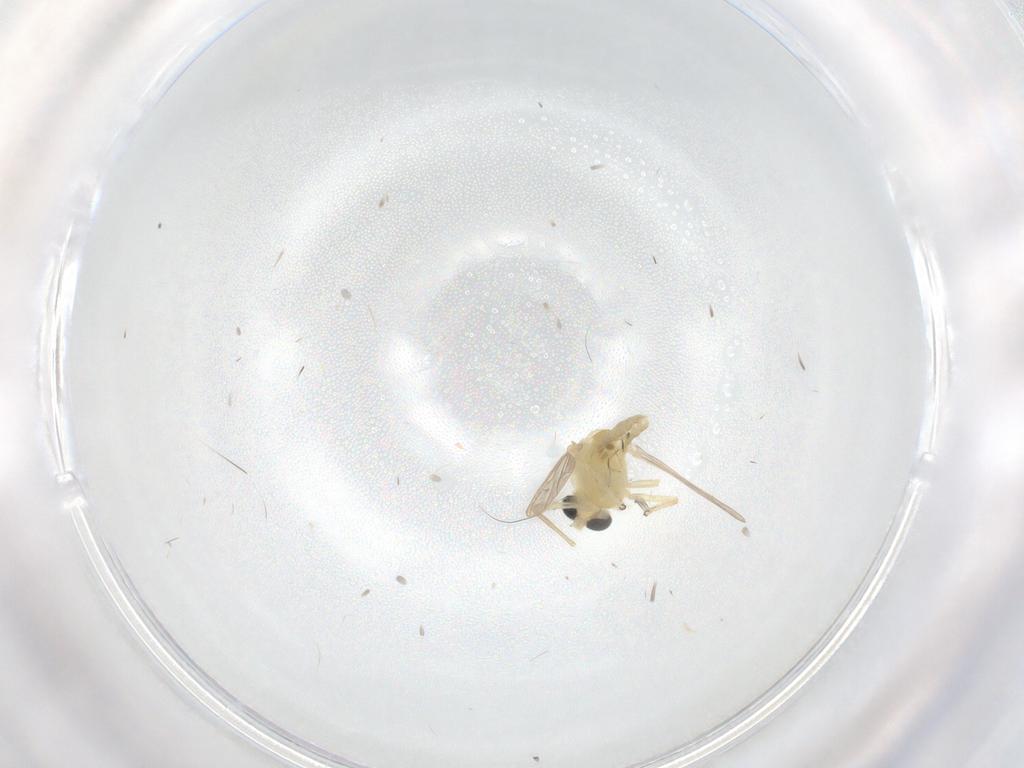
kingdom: Animalia
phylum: Arthropoda
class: Insecta
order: Diptera
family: Chironomidae
